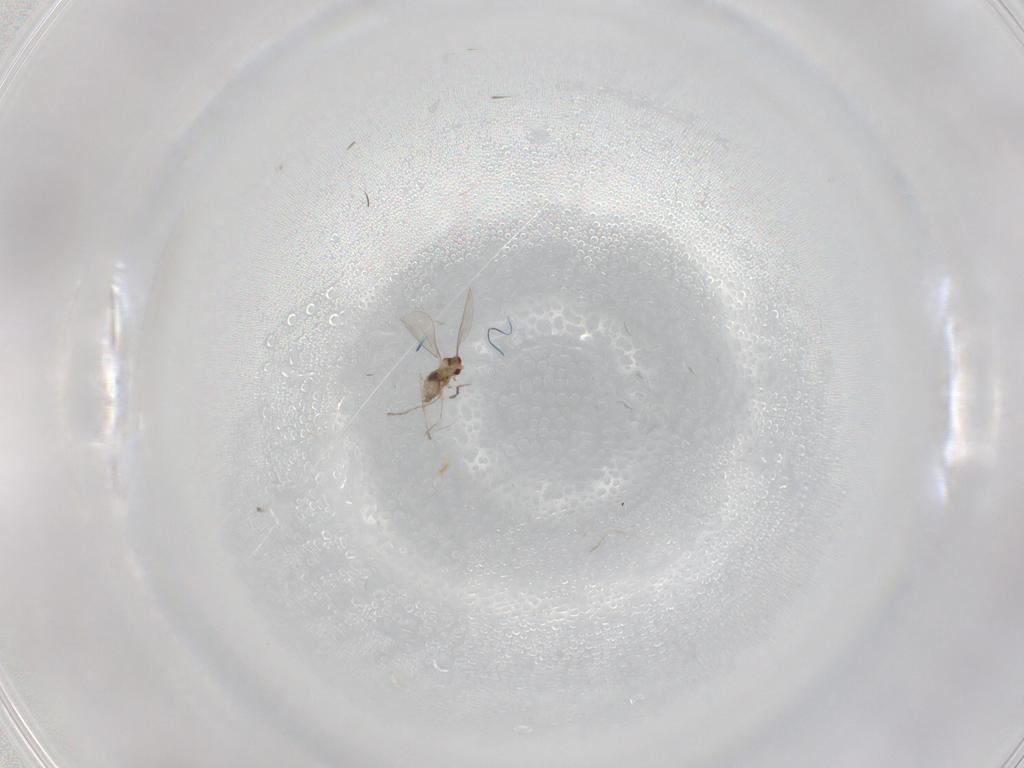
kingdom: Animalia
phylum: Arthropoda
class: Insecta
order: Diptera
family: Cecidomyiidae
